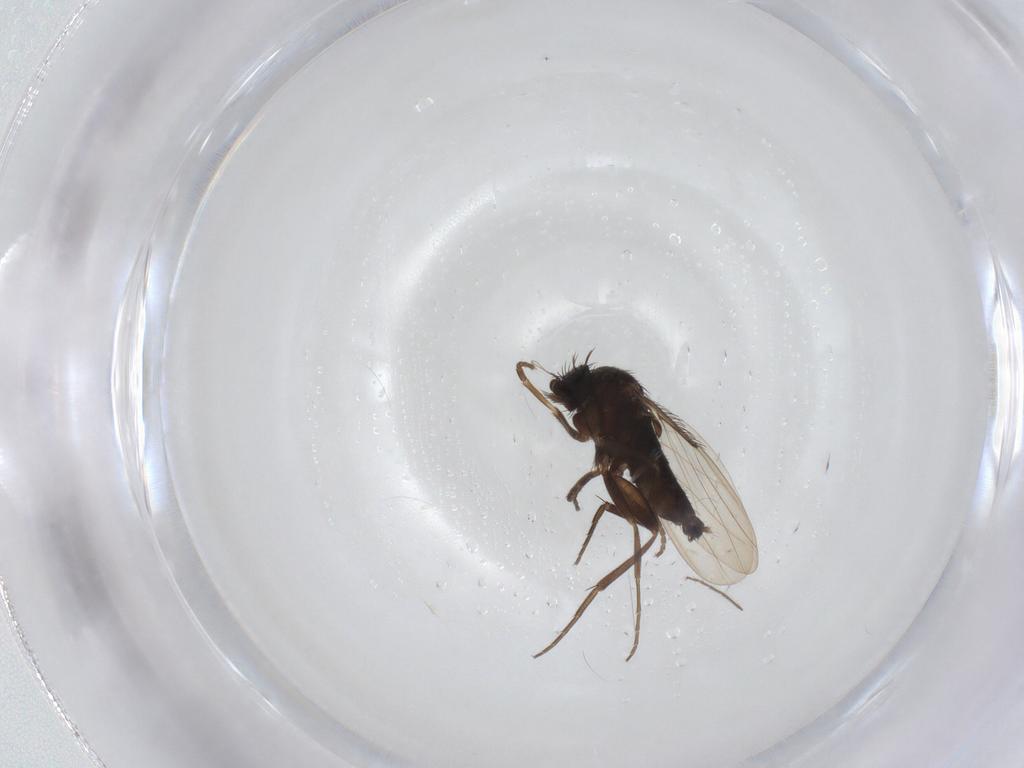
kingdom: Animalia
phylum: Arthropoda
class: Insecta
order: Diptera
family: Phoridae
